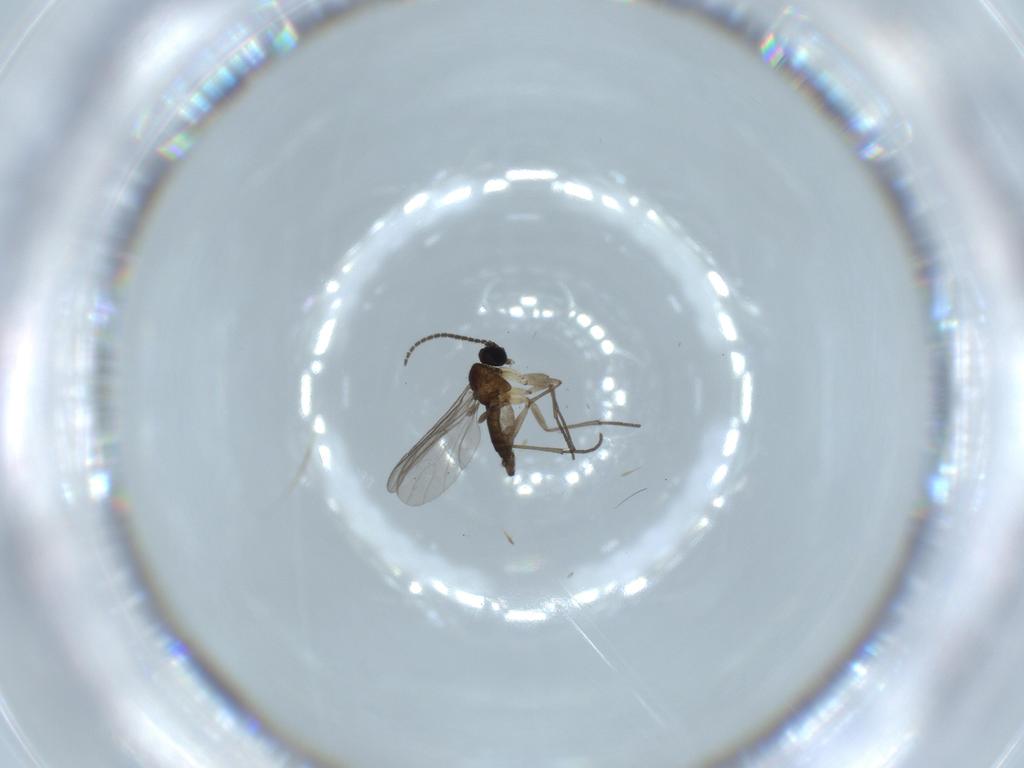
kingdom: Animalia
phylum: Arthropoda
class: Insecta
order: Diptera
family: Sciaridae
